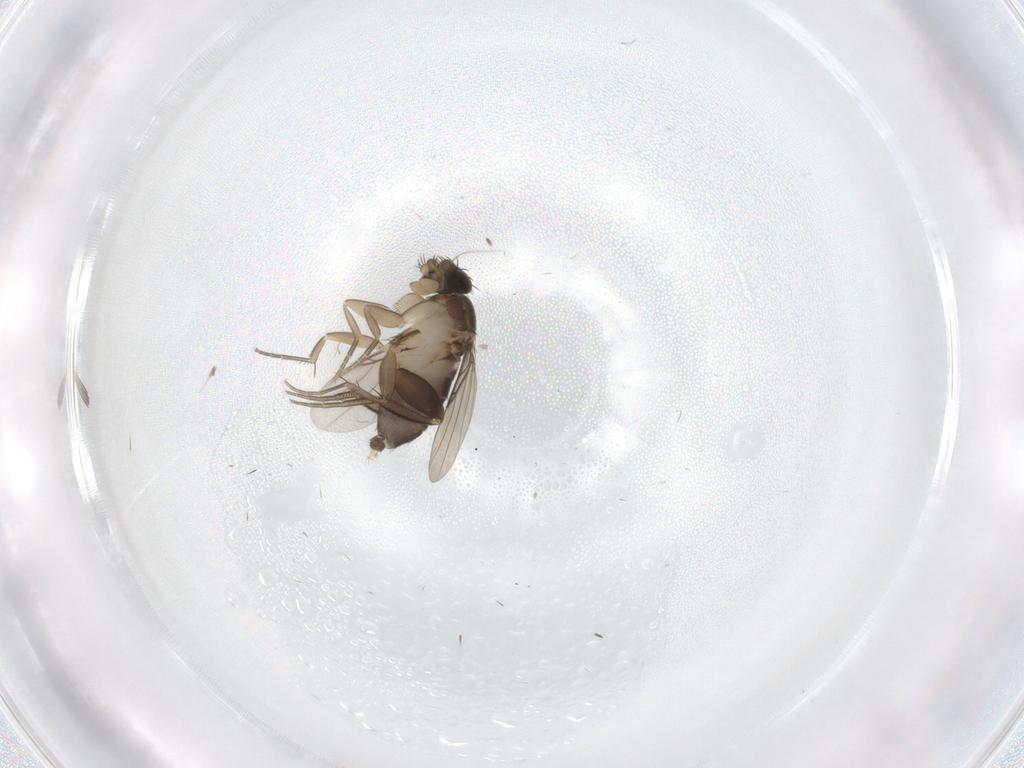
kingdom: Animalia
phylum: Arthropoda
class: Insecta
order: Diptera
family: Phoridae
